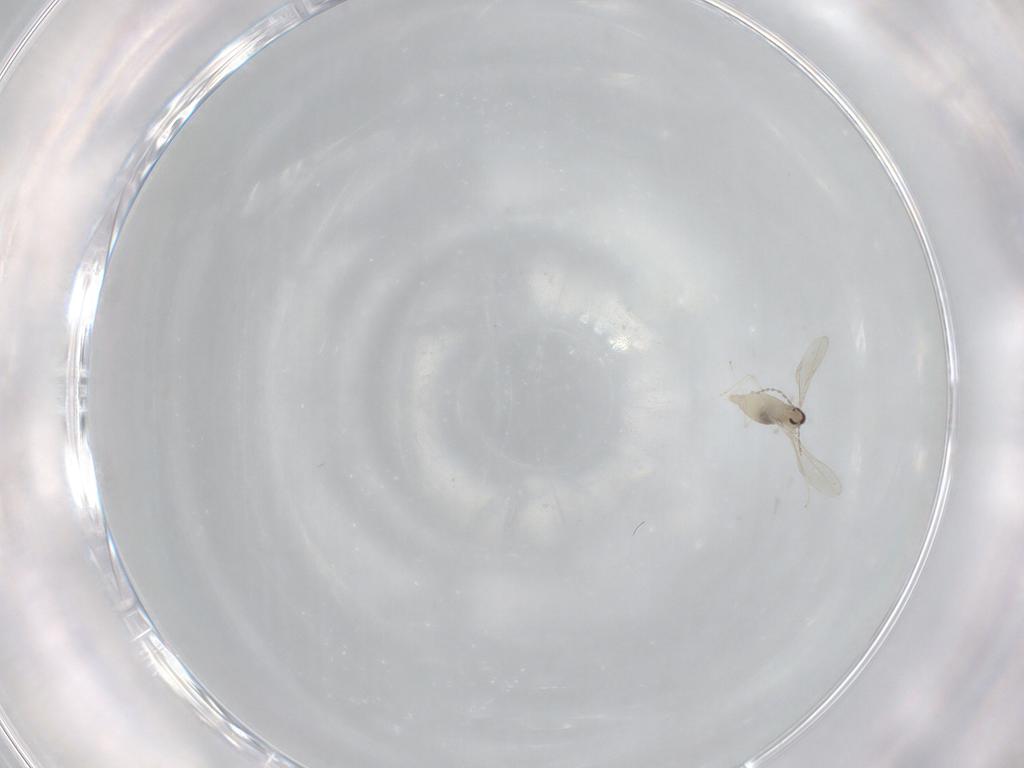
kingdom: Animalia
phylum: Arthropoda
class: Insecta
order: Diptera
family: Cecidomyiidae
